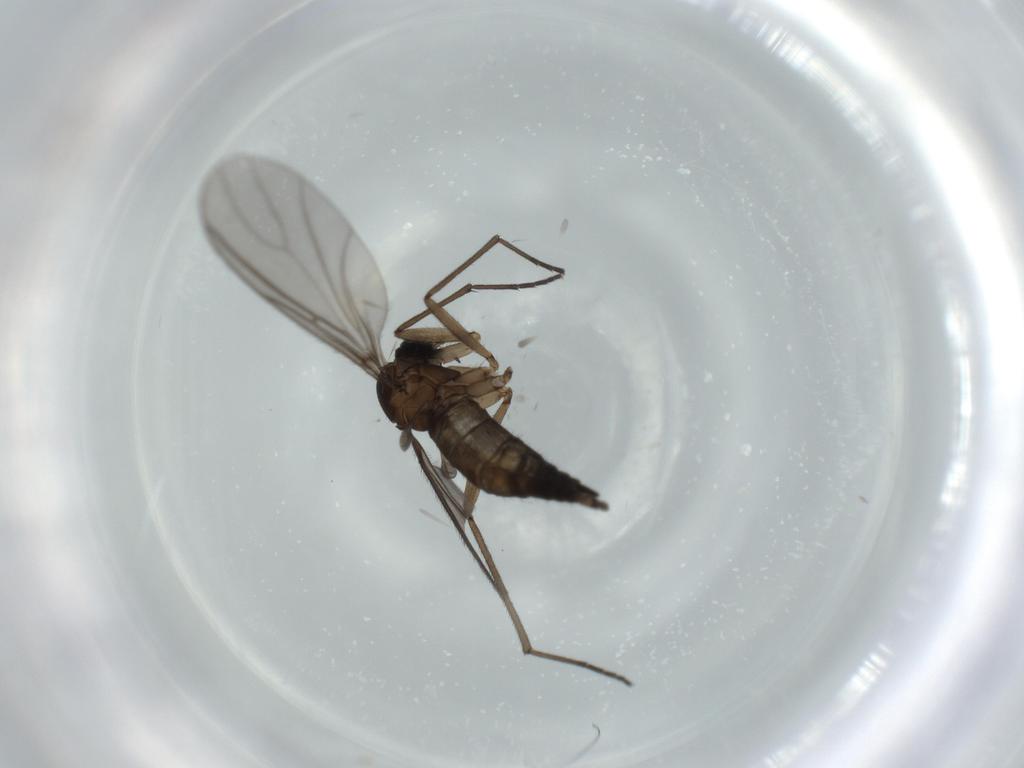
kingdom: Animalia
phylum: Arthropoda
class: Insecta
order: Diptera
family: Sciaridae
